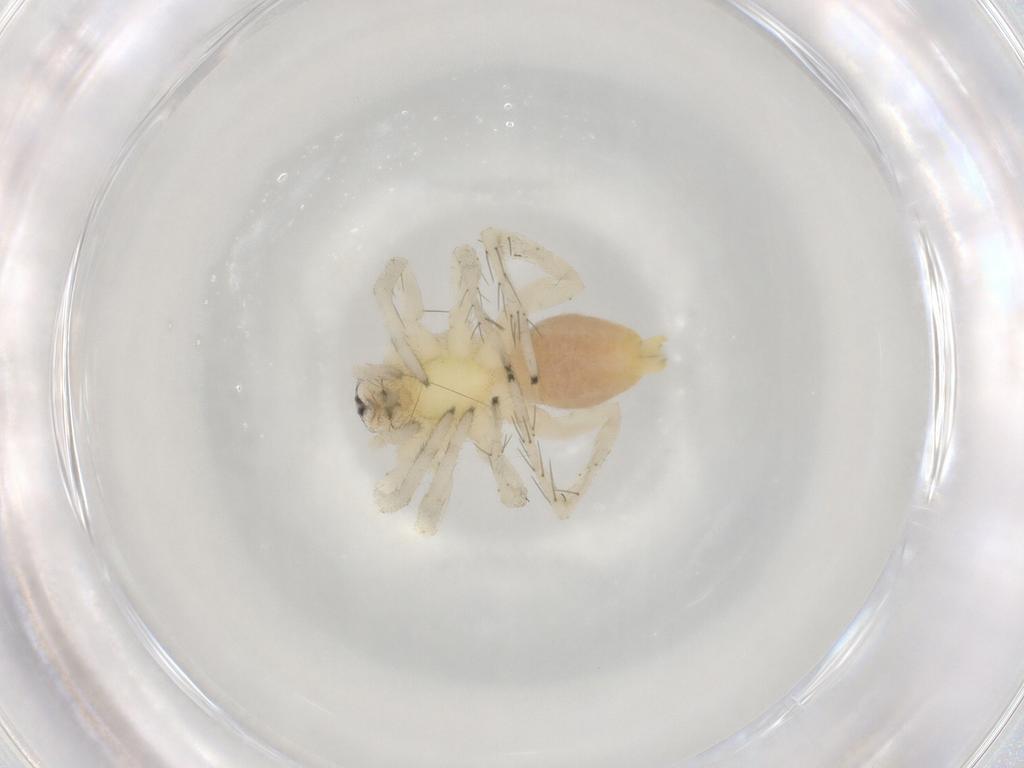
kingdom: Animalia
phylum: Arthropoda
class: Arachnida
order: Araneae
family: Clubionidae
